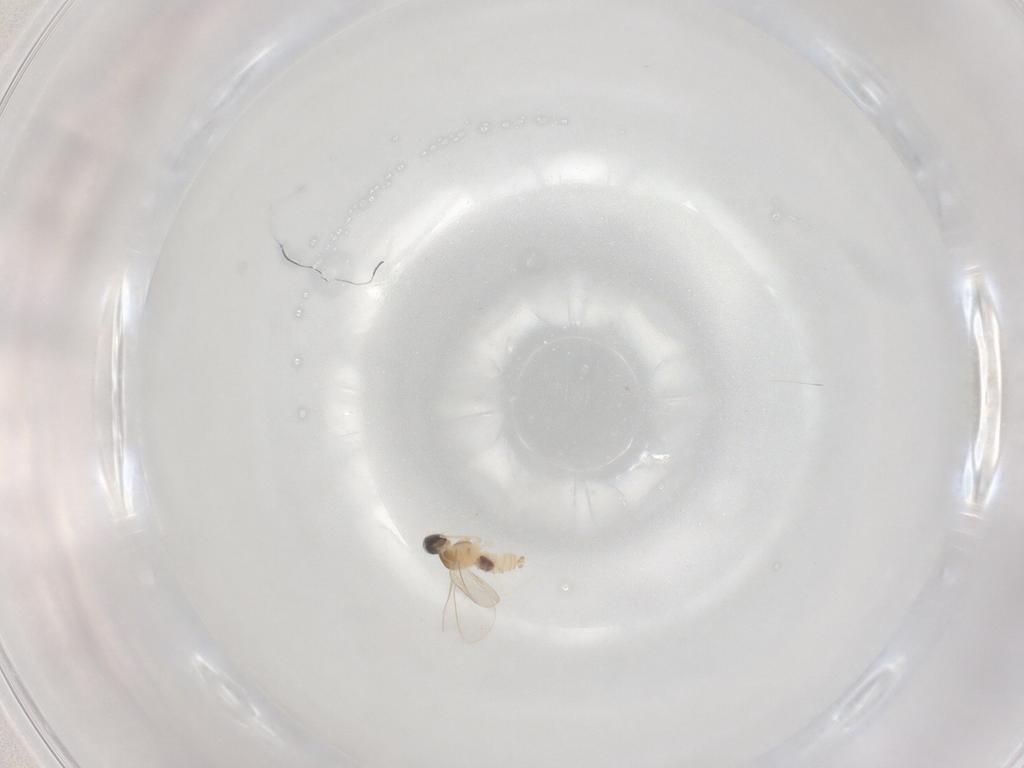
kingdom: Animalia
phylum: Arthropoda
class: Insecta
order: Diptera
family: Cecidomyiidae
